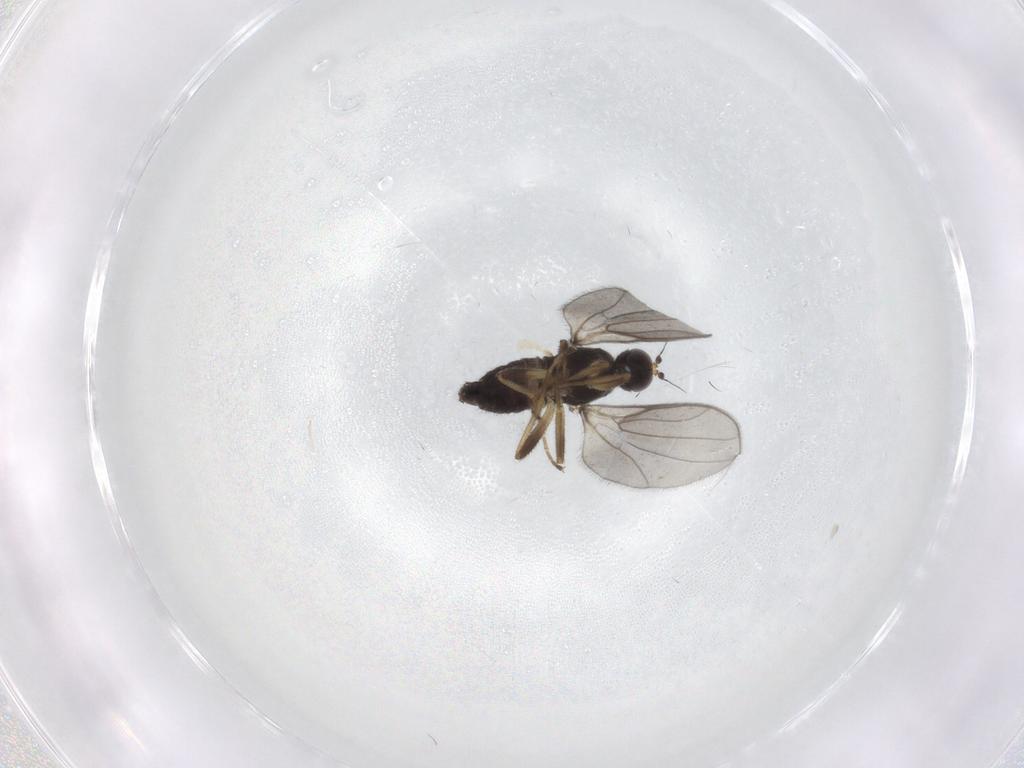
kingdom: Animalia
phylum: Arthropoda
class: Insecta
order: Diptera
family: Hybotidae
